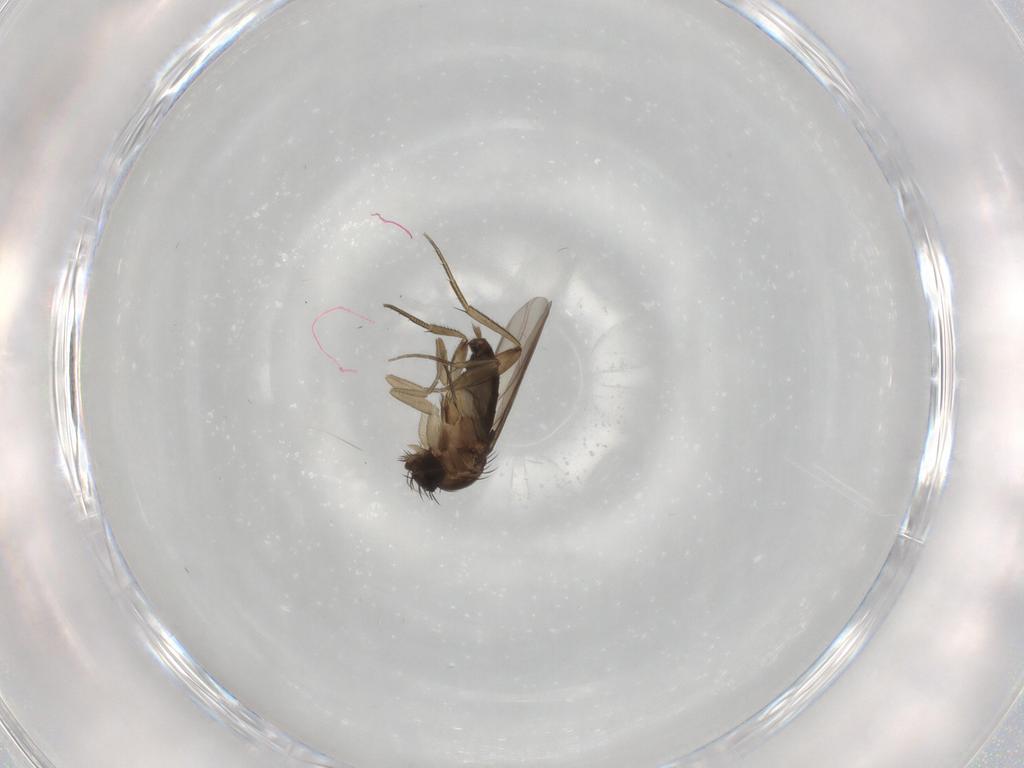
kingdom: Animalia
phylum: Arthropoda
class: Insecta
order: Diptera
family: Phoridae
